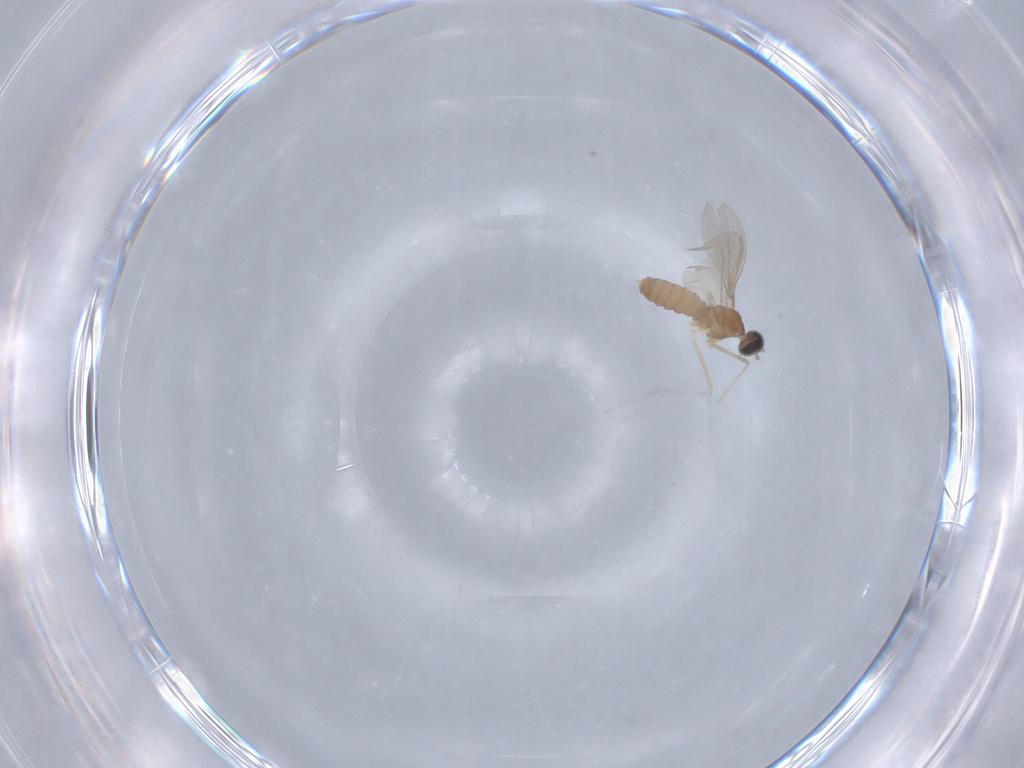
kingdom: Animalia
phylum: Arthropoda
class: Insecta
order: Diptera
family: Cecidomyiidae
